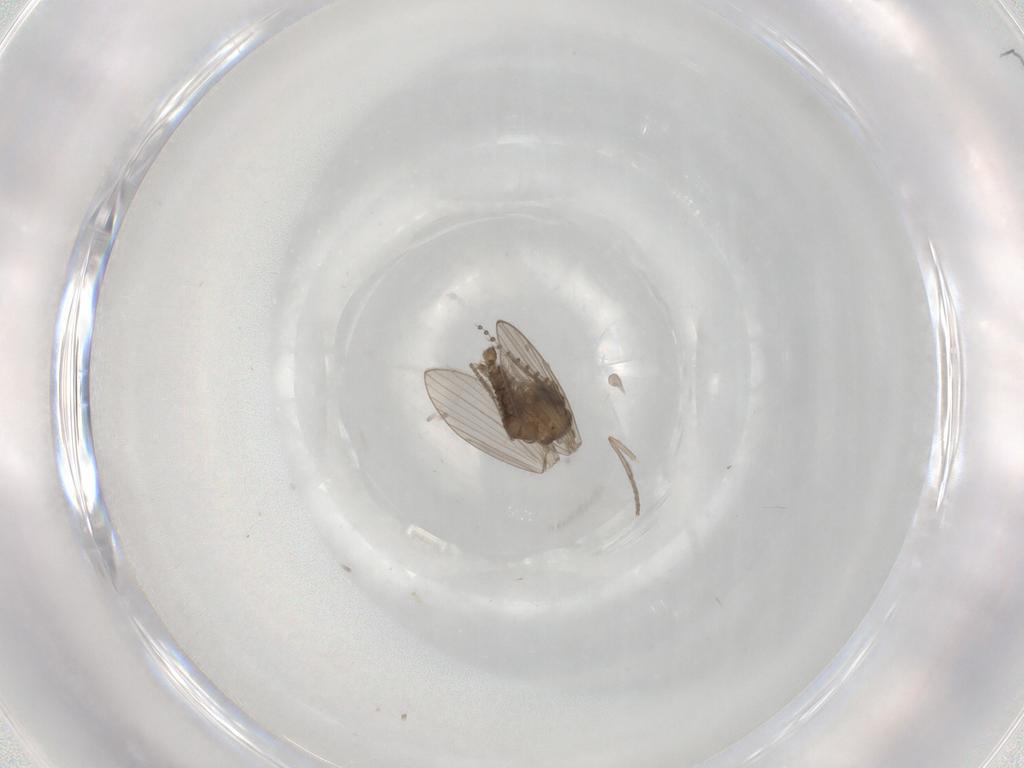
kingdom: Animalia
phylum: Arthropoda
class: Insecta
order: Diptera
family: Psychodidae
